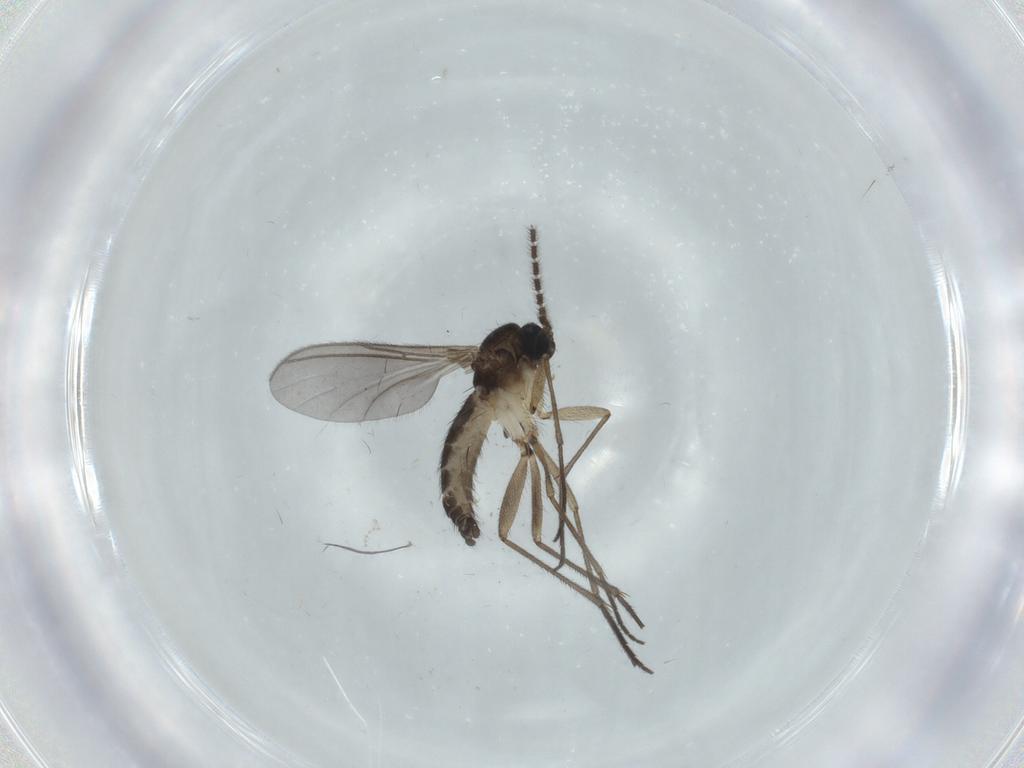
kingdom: Animalia
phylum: Arthropoda
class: Insecta
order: Diptera
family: Sciaridae
